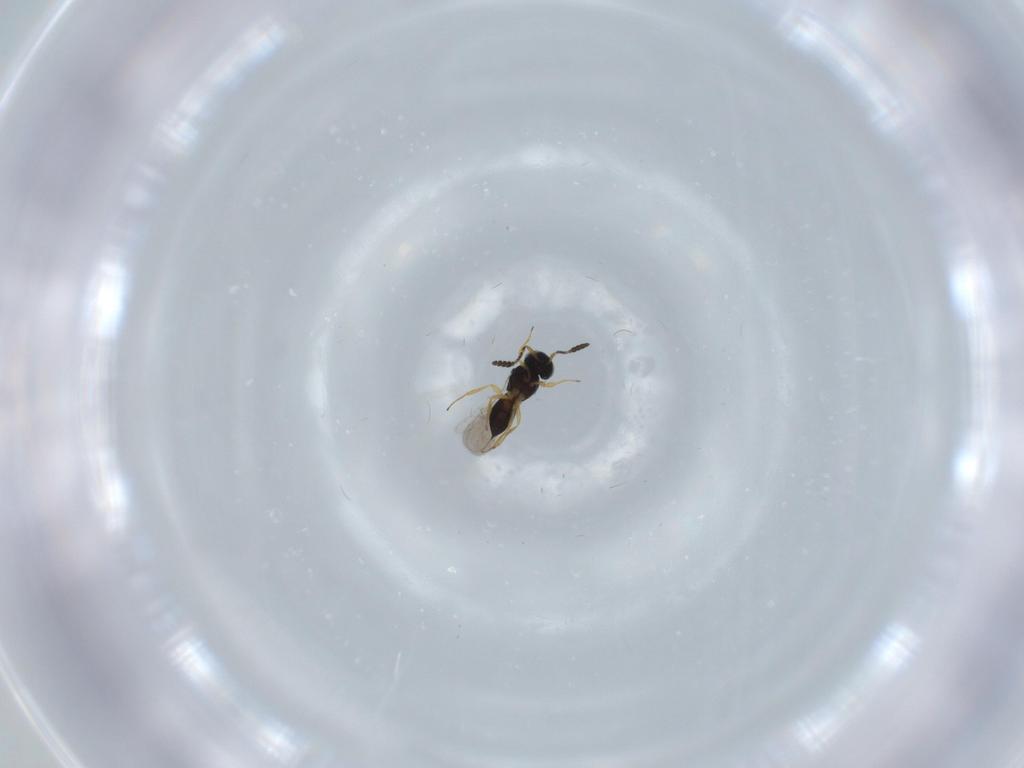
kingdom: Animalia
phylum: Arthropoda
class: Insecta
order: Hymenoptera
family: Scelionidae
